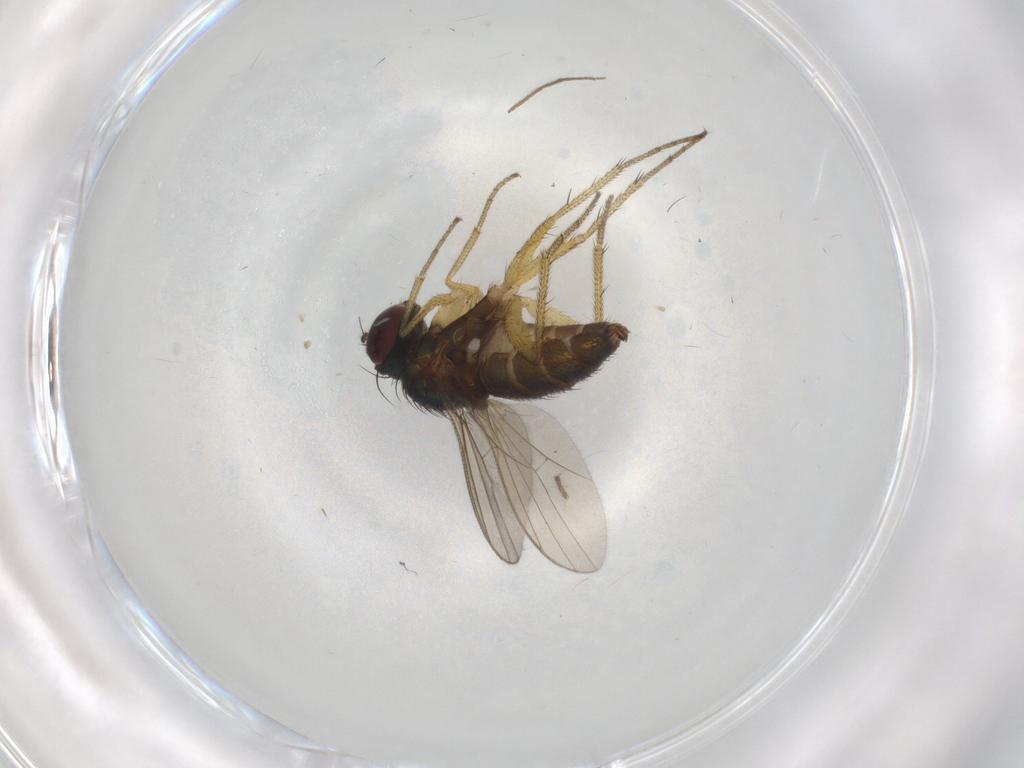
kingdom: Animalia
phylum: Arthropoda
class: Insecta
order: Diptera
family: Dolichopodidae
